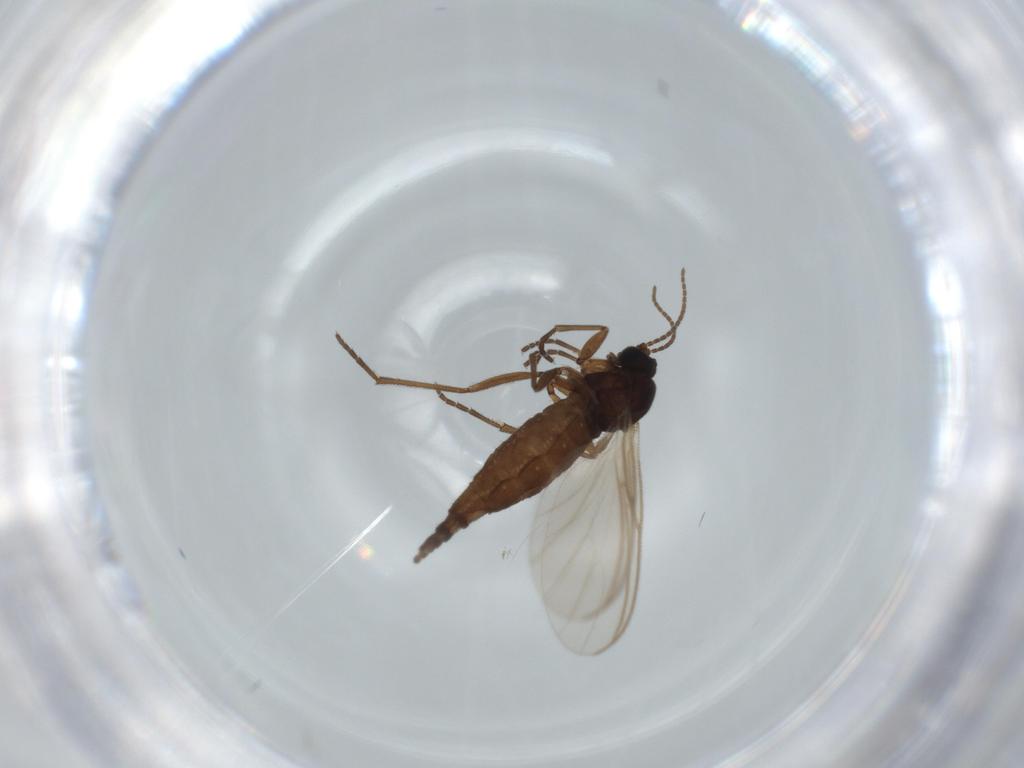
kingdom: Animalia
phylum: Arthropoda
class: Insecta
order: Diptera
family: Sciaridae
